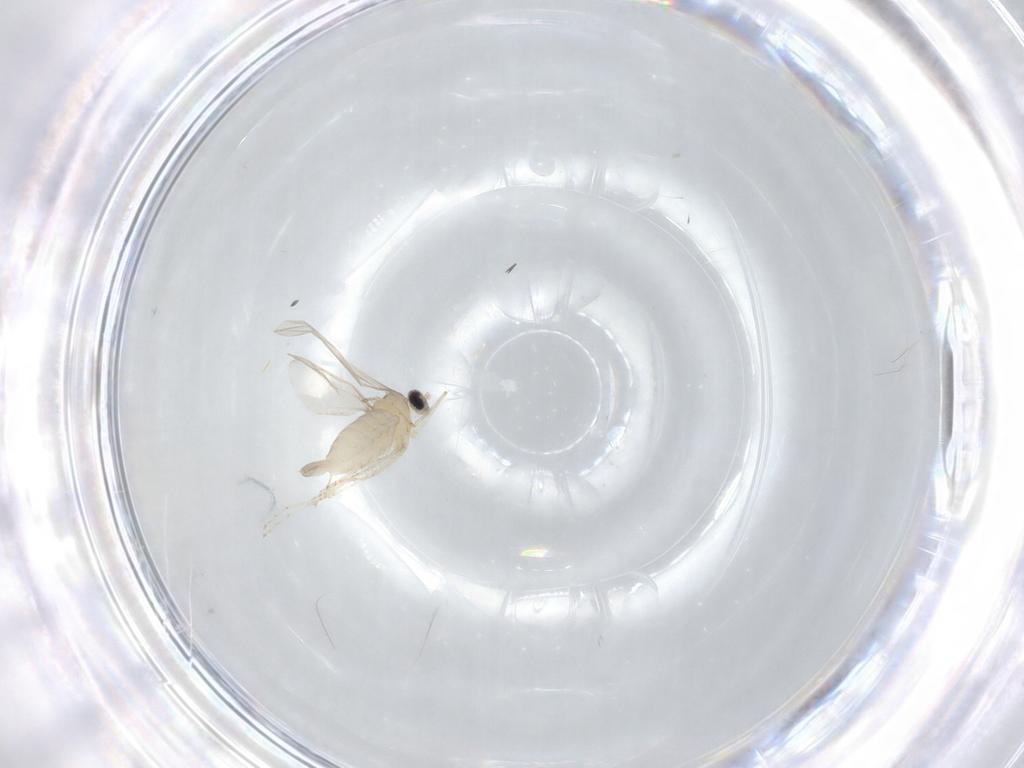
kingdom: Animalia
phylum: Arthropoda
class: Insecta
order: Diptera
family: Cecidomyiidae
